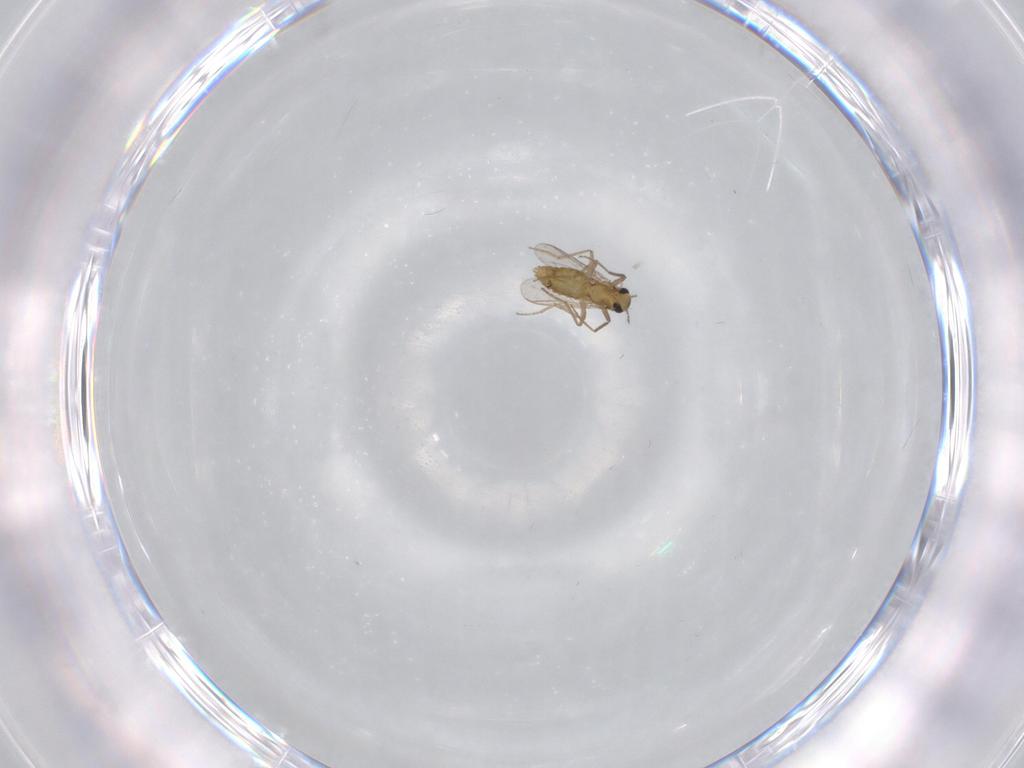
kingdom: Animalia
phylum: Arthropoda
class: Insecta
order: Diptera
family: Chironomidae
